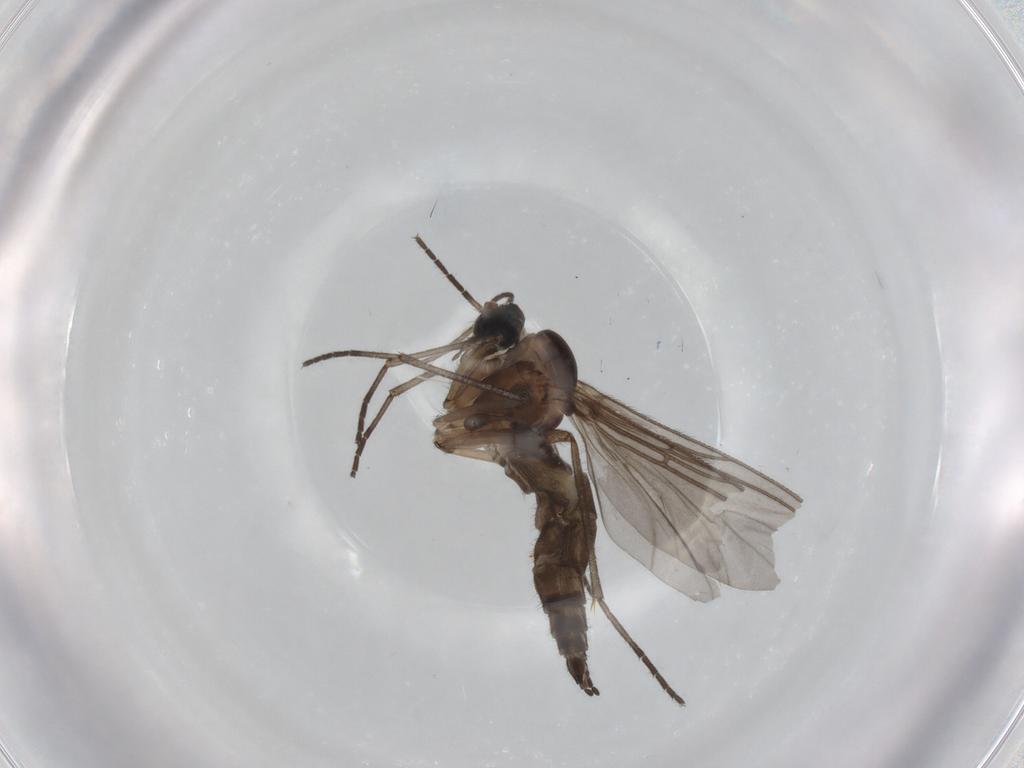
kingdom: Animalia
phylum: Arthropoda
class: Insecta
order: Diptera
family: Sciaridae
